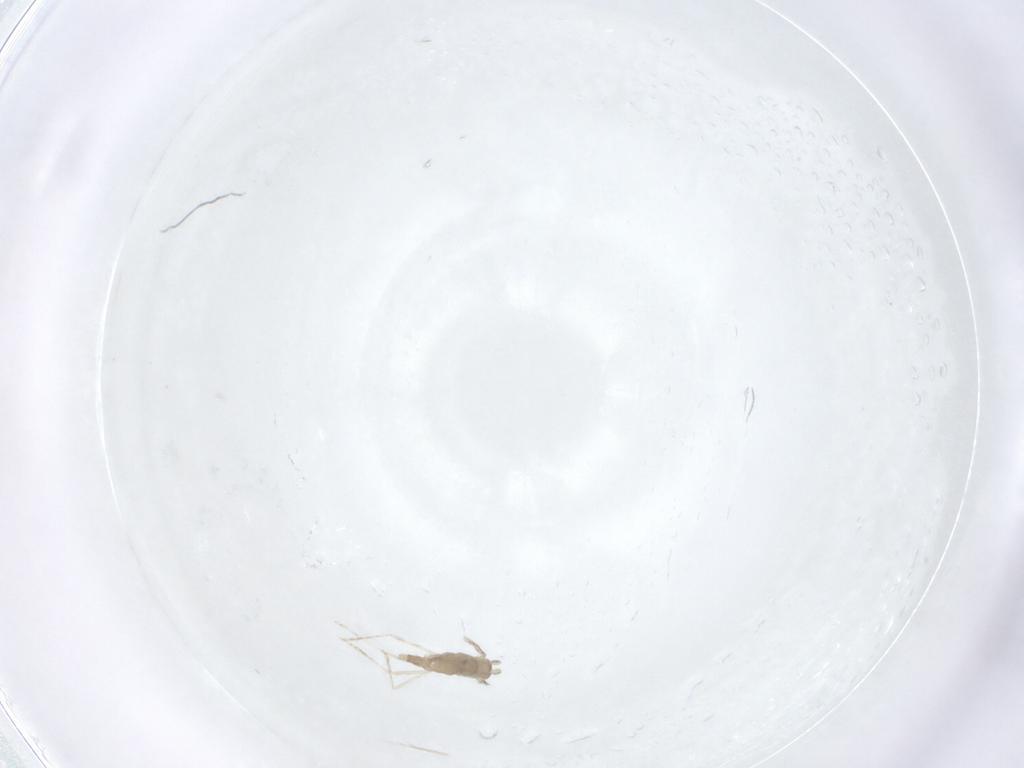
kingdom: Animalia
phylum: Arthropoda
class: Insecta
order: Diptera
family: Cecidomyiidae
